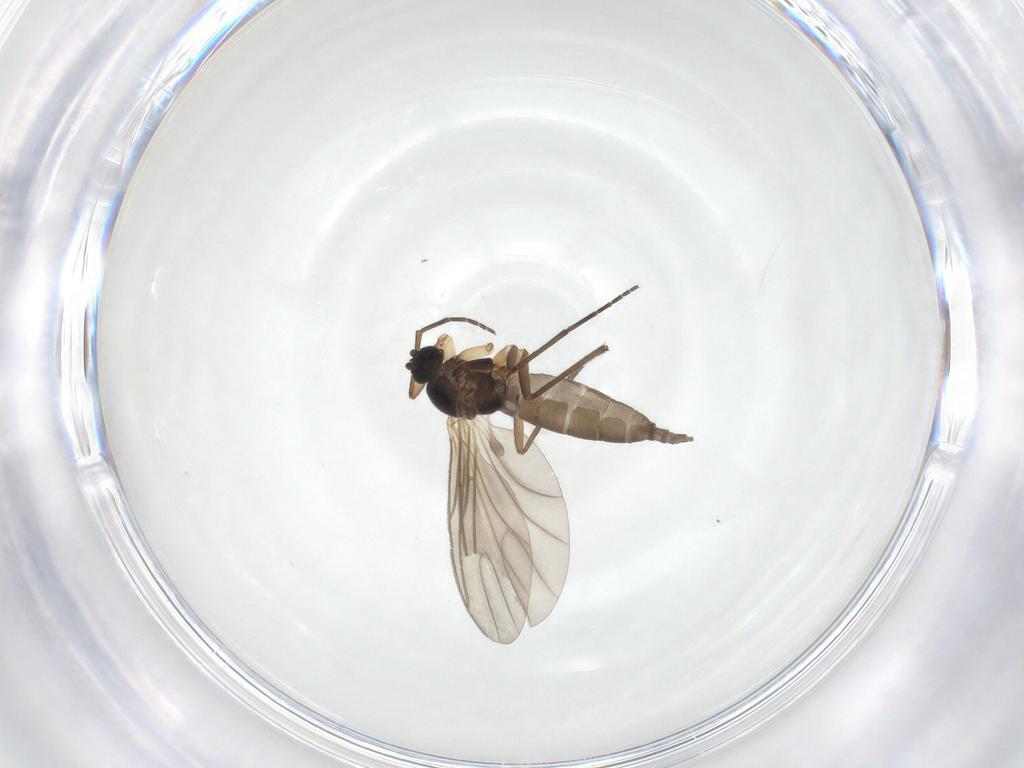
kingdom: Animalia
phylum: Arthropoda
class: Insecta
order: Diptera
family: Sciaridae
